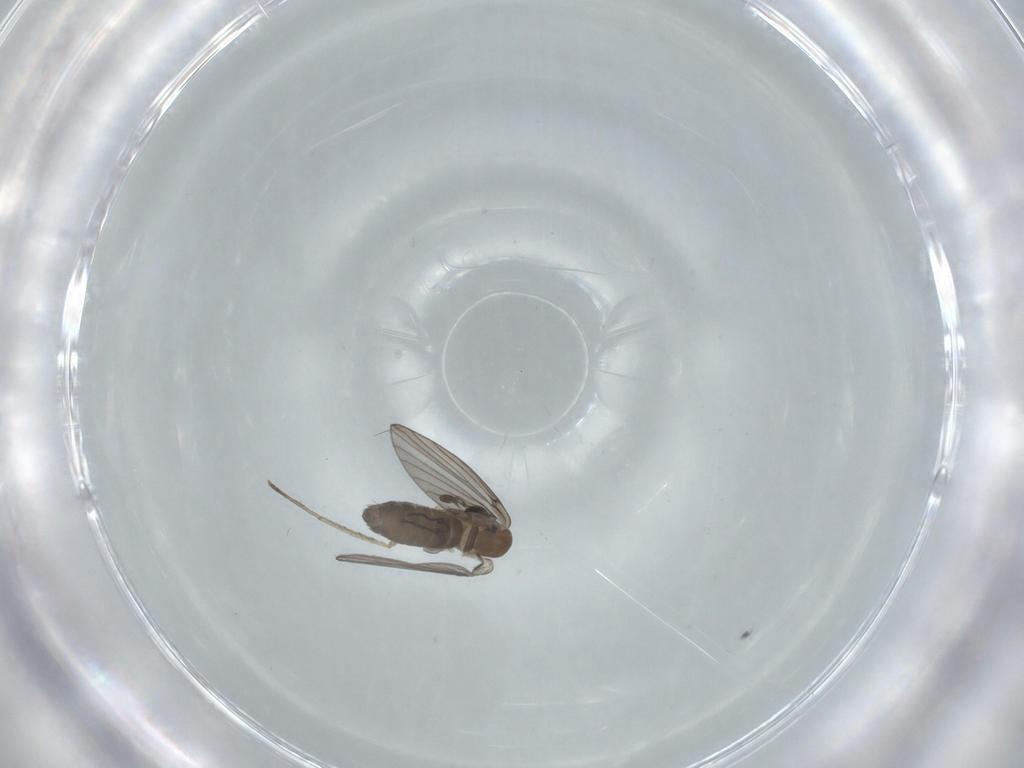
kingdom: Animalia
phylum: Arthropoda
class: Insecta
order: Diptera
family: Psychodidae
